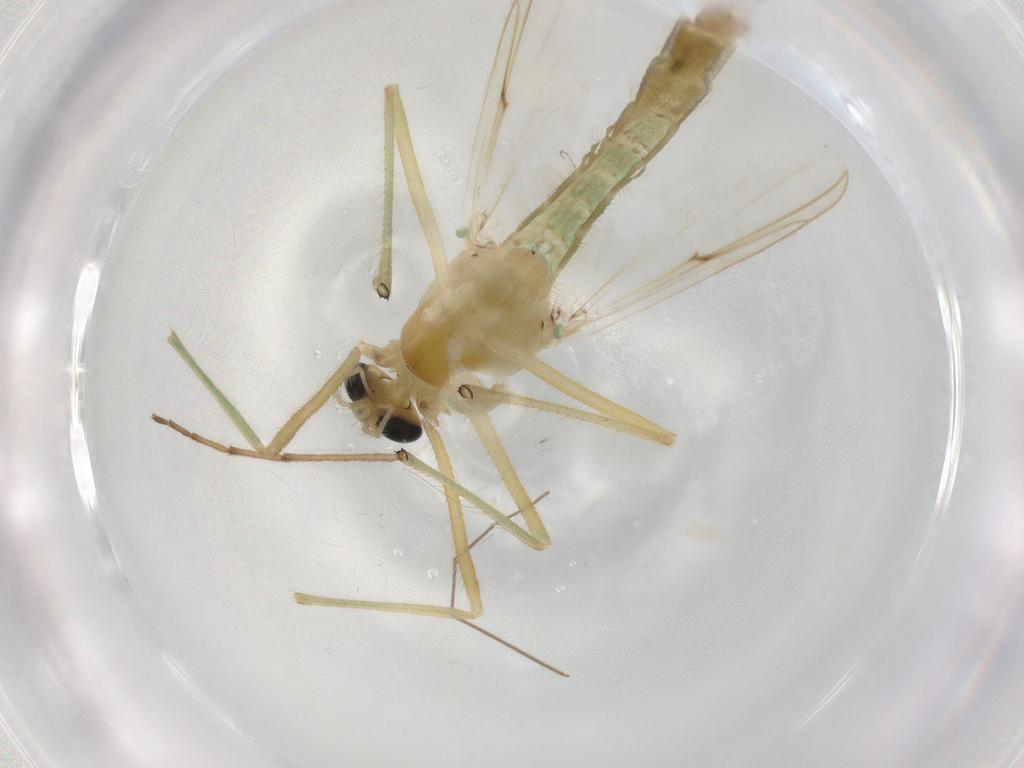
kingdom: Animalia
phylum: Arthropoda
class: Insecta
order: Diptera
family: Chironomidae
